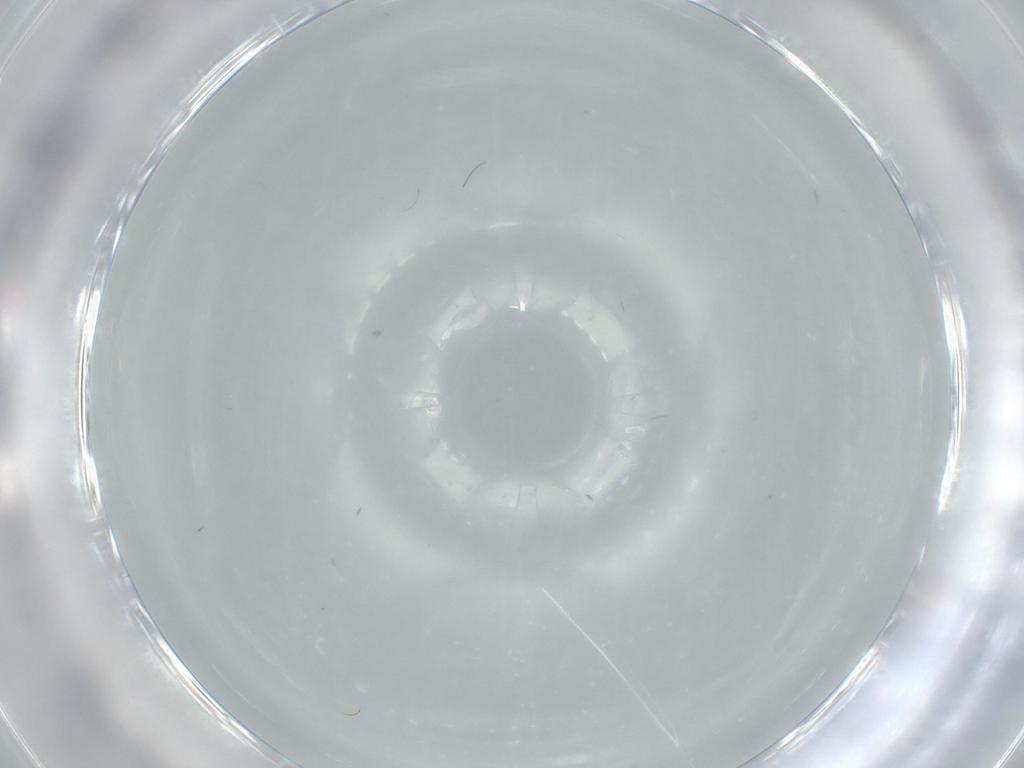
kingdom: Animalia
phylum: Arthropoda
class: Insecta
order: Diptera
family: Sciaridae
